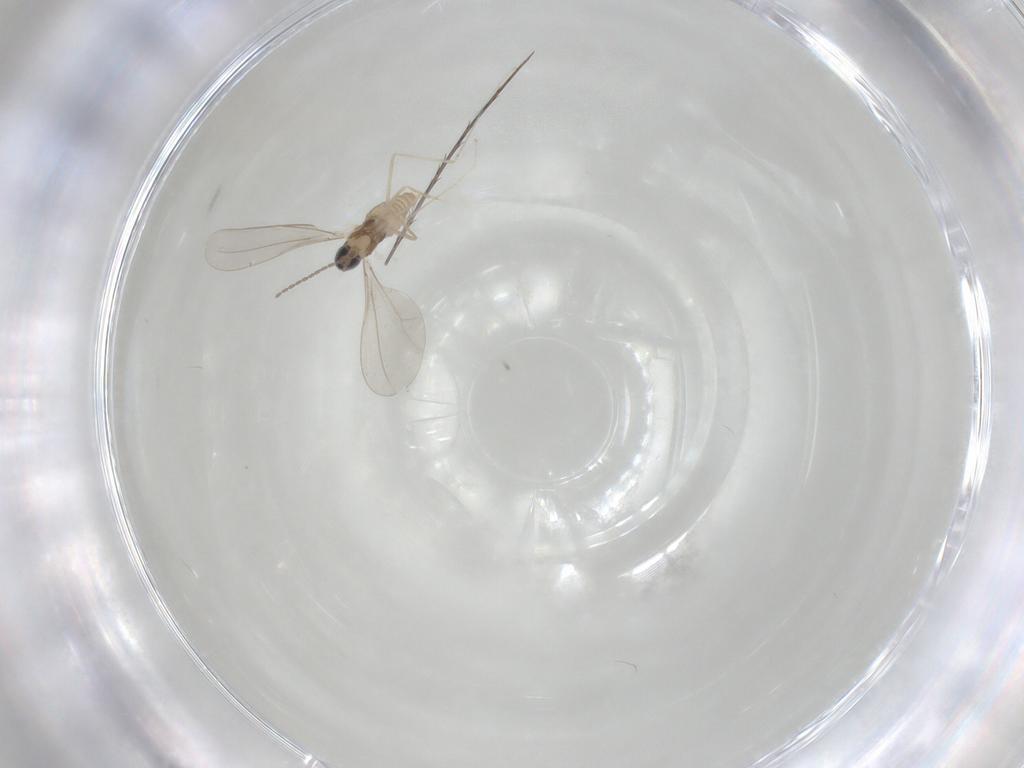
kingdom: Animalia
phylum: Arthropoda
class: Insecta
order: Diptera
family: Cecidomyiidae
